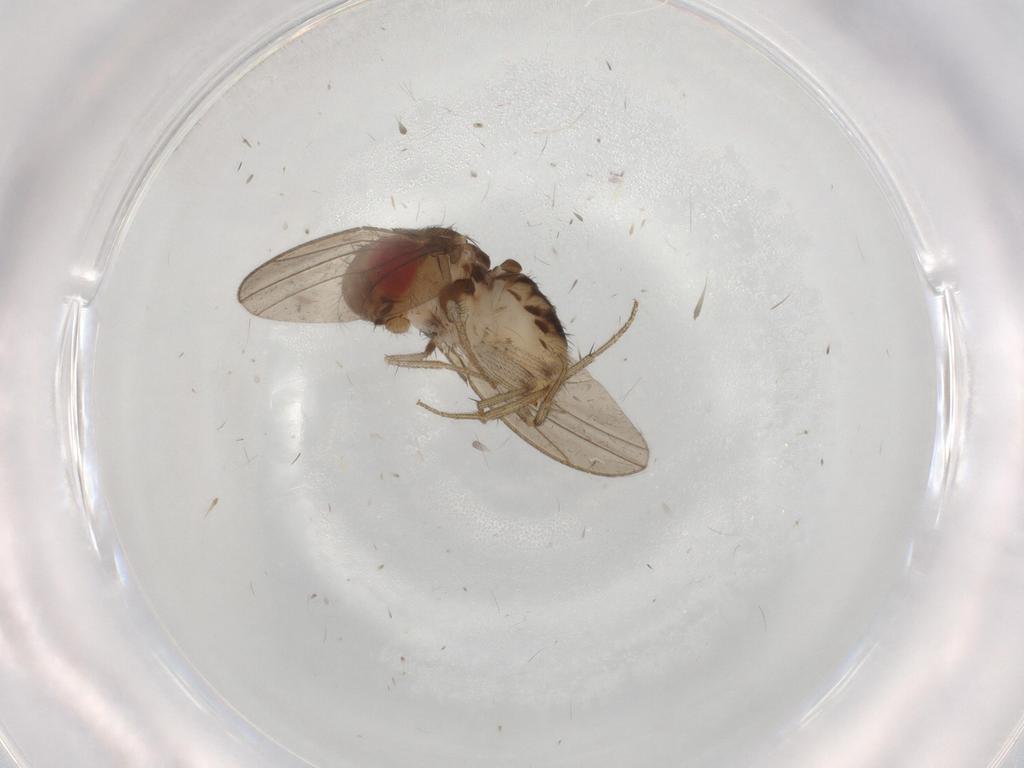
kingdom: Animalia
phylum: Arthropoda
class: Insecta
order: Diptera
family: Drosophilidae
